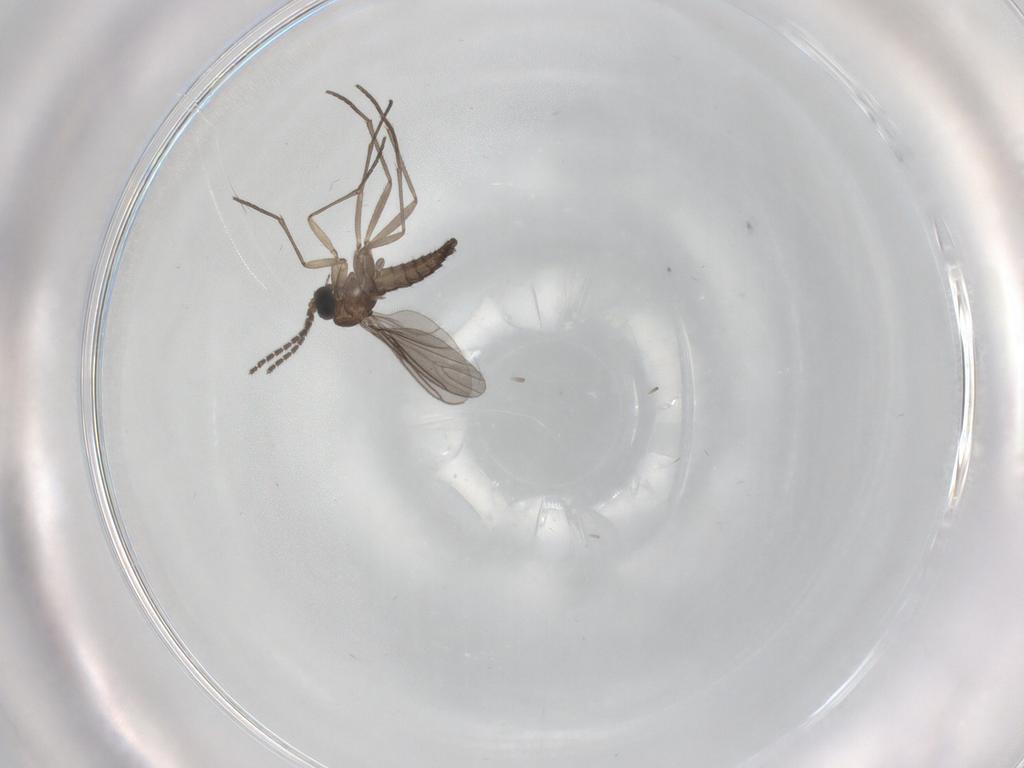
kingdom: Animalia
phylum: Arthropoda
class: Insecta
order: Diptera
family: Sciaridae
